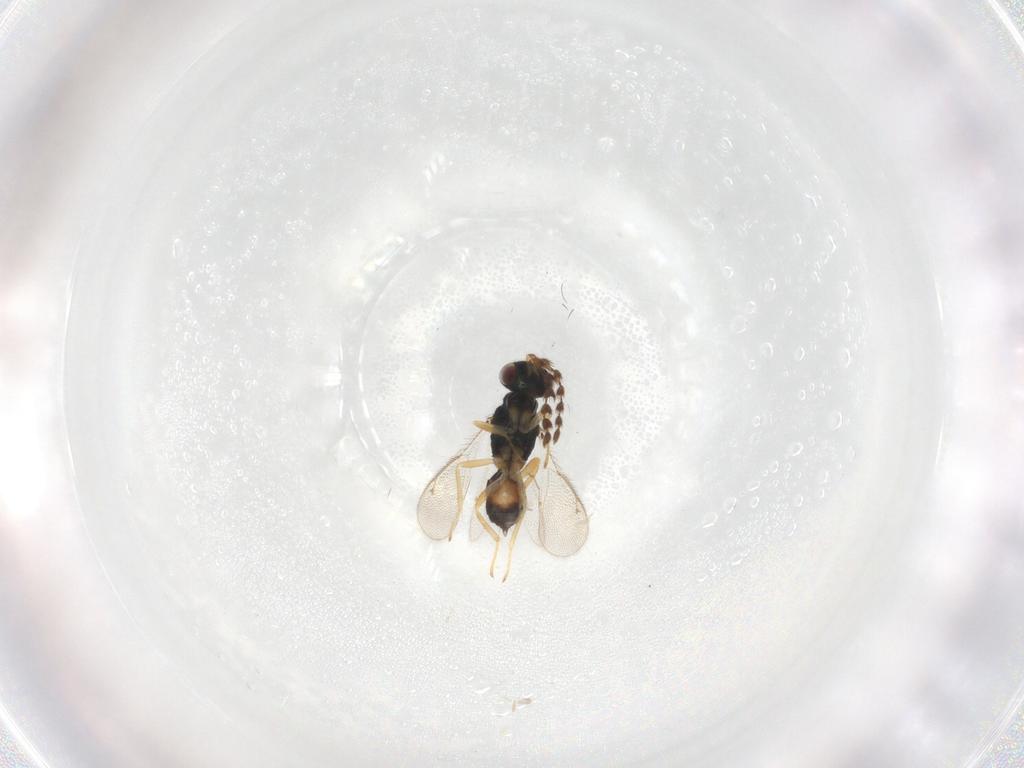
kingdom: Animalia
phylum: Arthropoda
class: Insecta
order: Hymenoptera
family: Eulophidae
